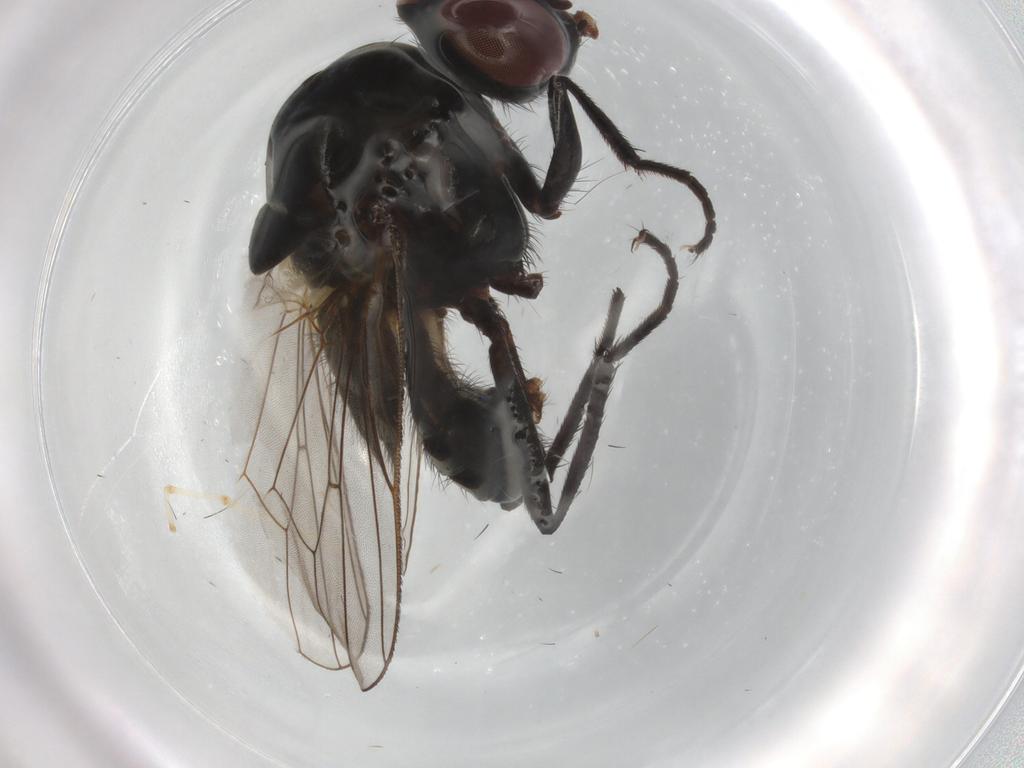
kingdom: Animalia
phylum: Arthropoda
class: Insecta
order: Diptera
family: Anthomyiidae
